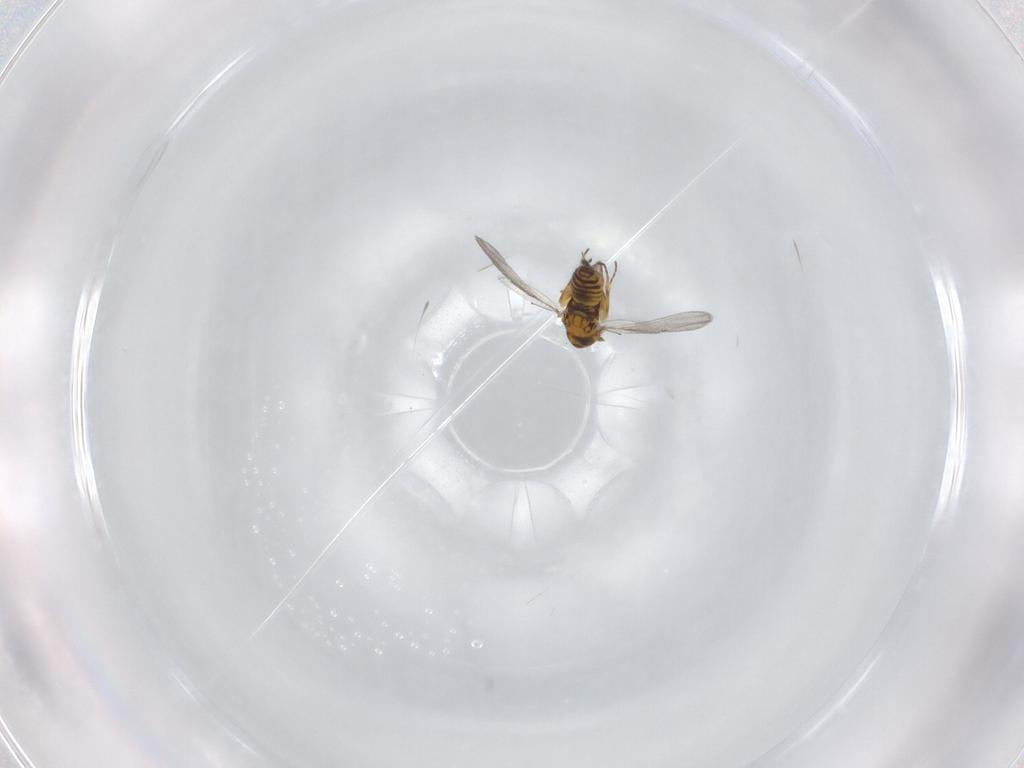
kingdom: Animalia
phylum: Arthropoda
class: Insecta
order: Hymenoptera
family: Eulophidae
